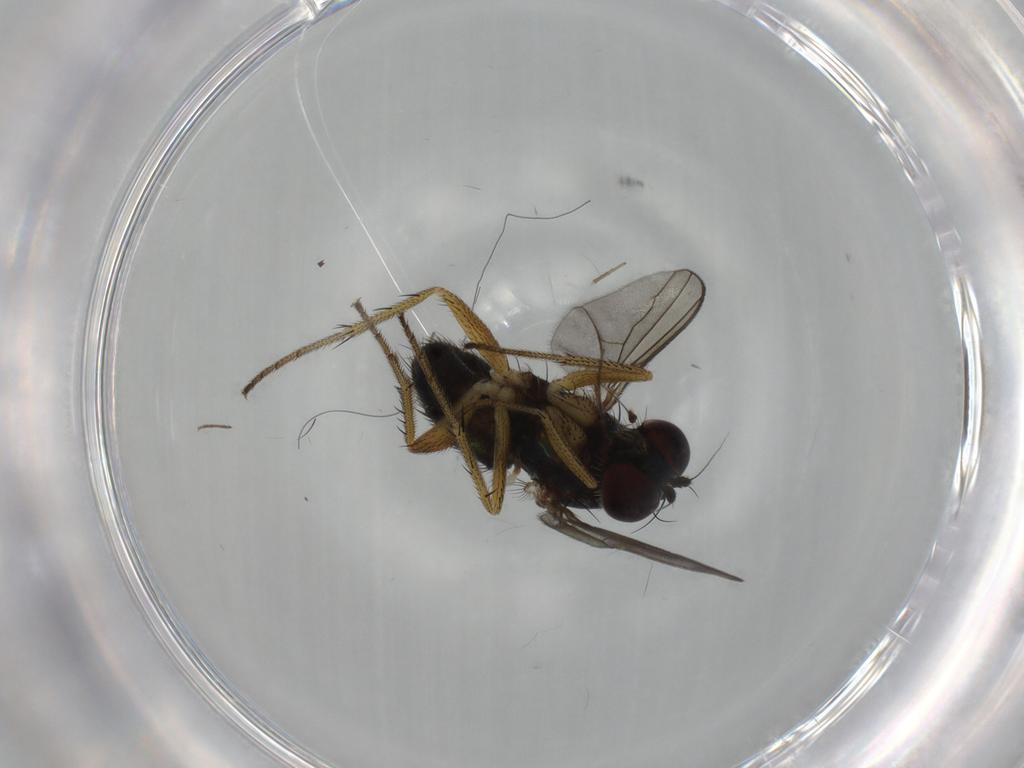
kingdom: Animalia
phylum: Arthropoda
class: Insecta
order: Diptera
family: Dolichopodidae
